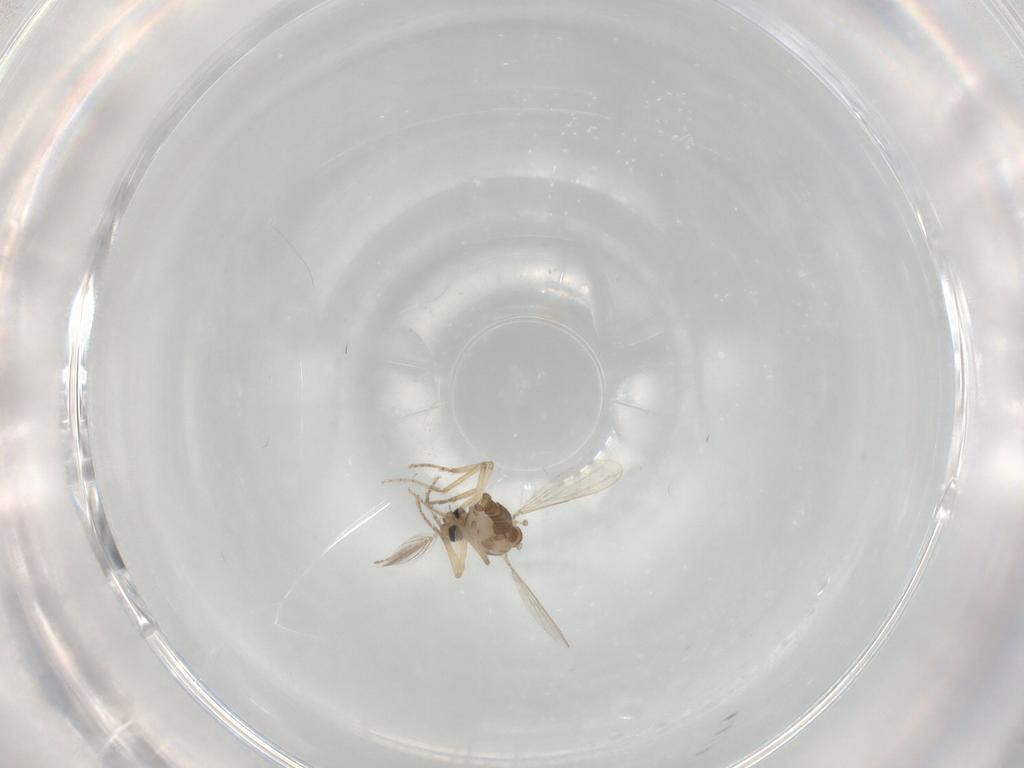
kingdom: Animalia
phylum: Arthropoda
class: Insecta
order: Diptera
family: Ceratopogonidae
